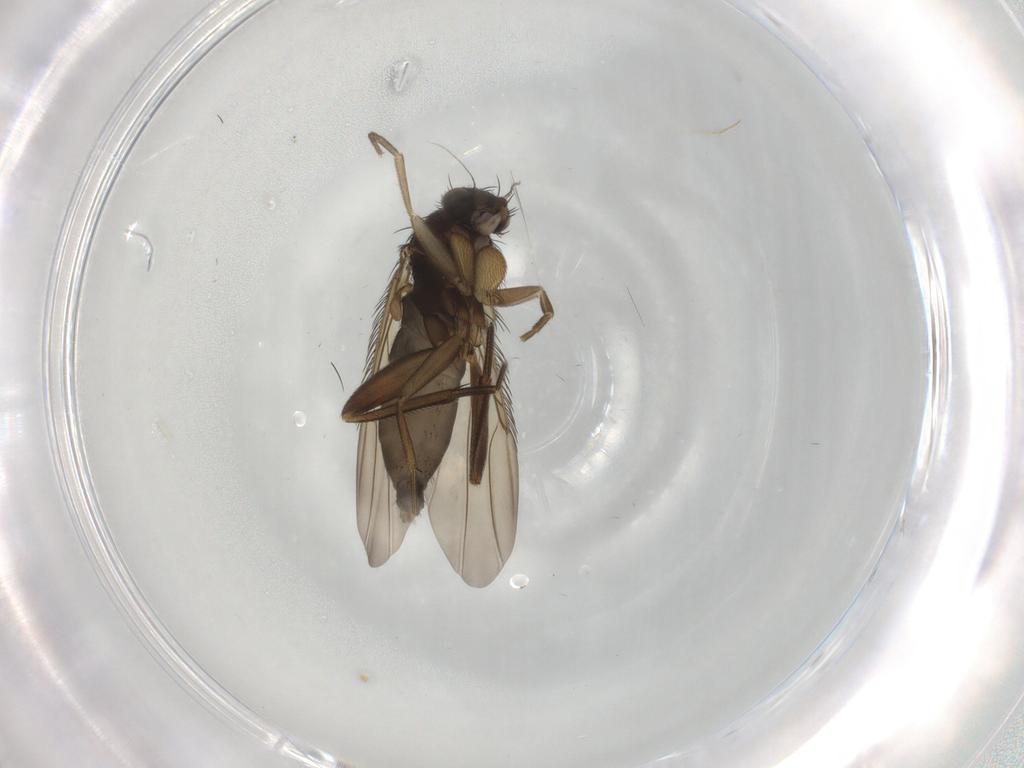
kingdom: Animalia
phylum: Arthropoda
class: Insecta
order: Diptera
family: Phoridae
